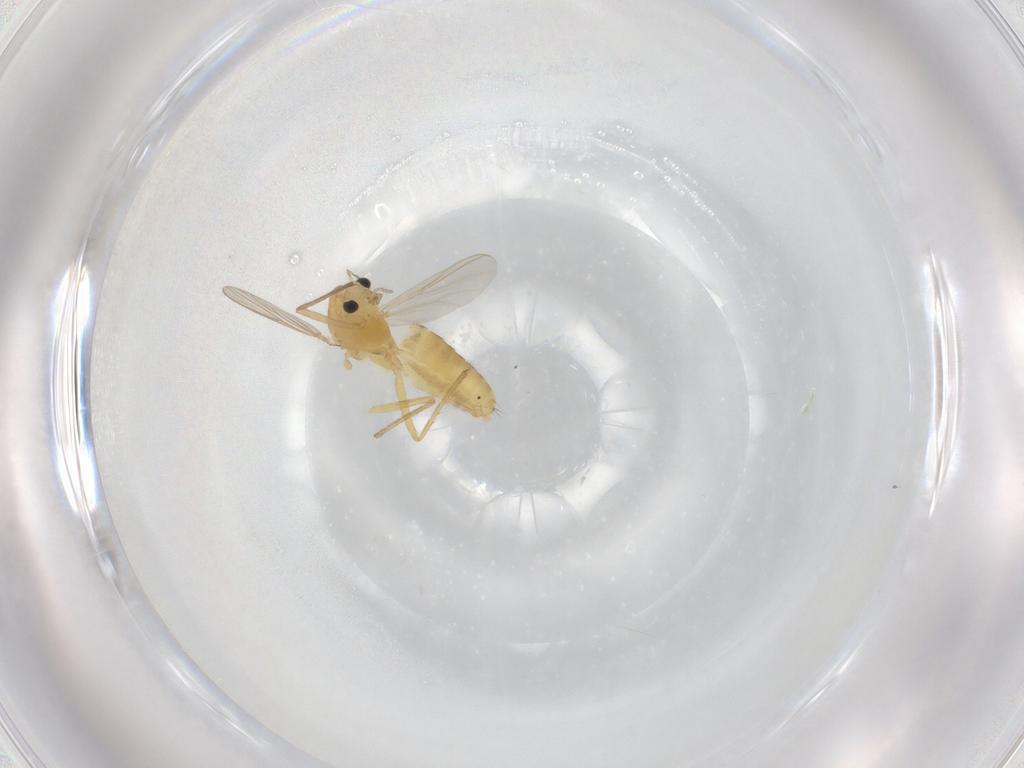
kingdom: Animalia
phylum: Arthropoda
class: Insecta
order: Diptera
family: Chironomidae
